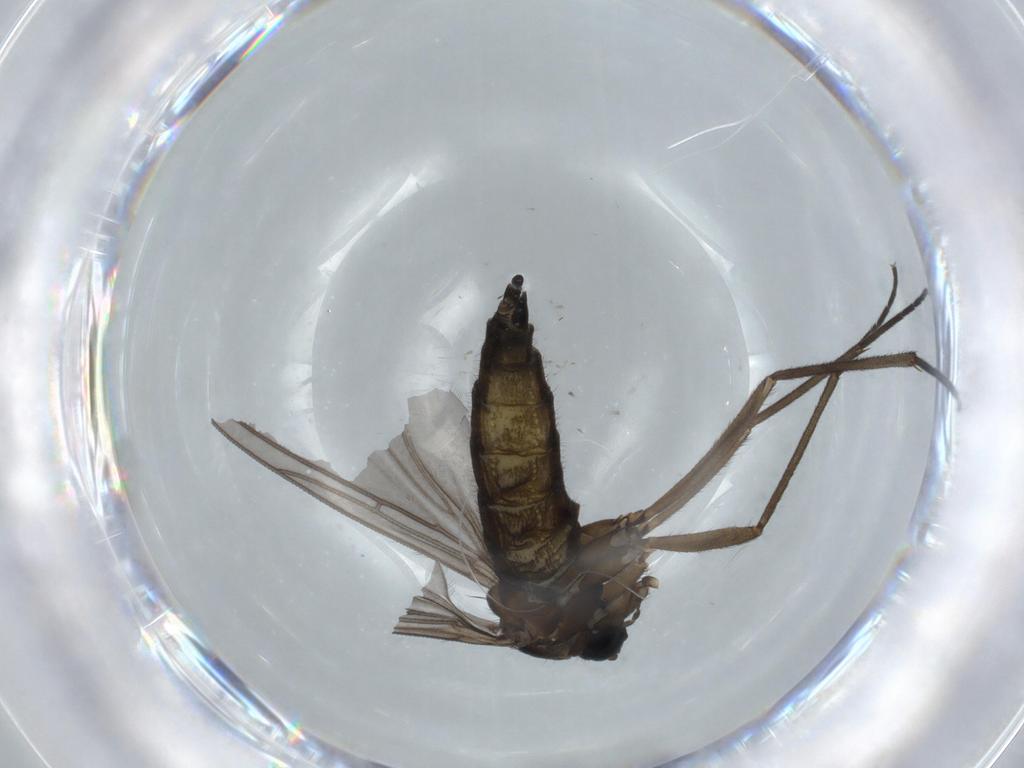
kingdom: Animalia
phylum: Arthropoda
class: Insecta
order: Diptera
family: Sciaridae
